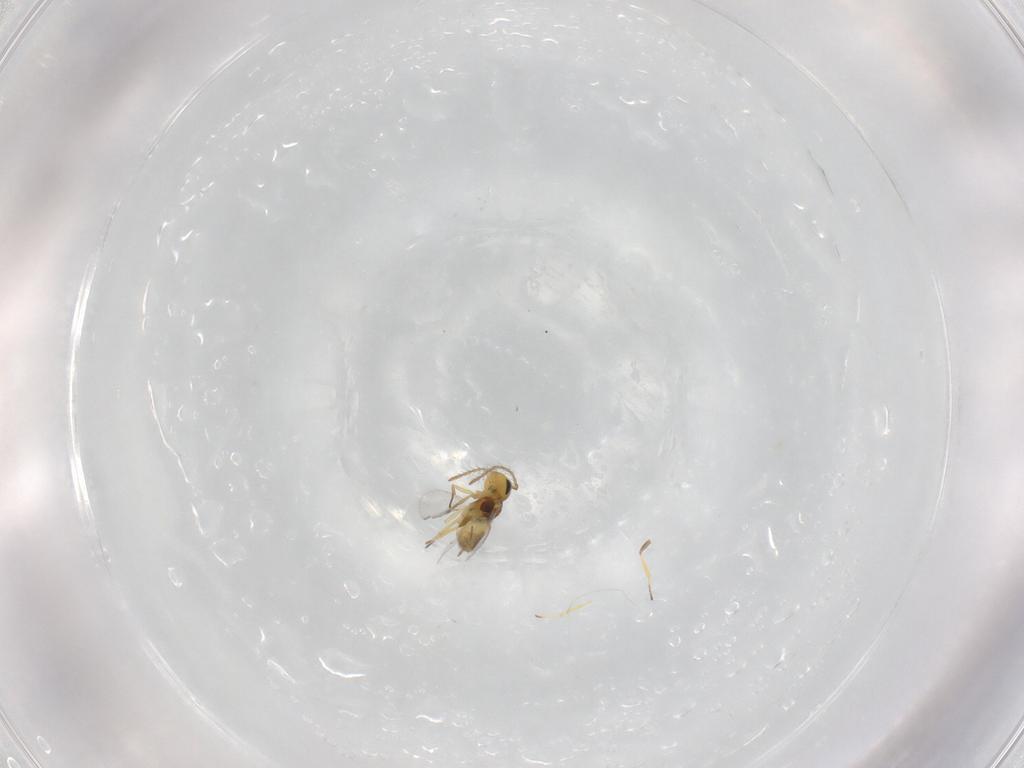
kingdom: Animalia
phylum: Arthropoda
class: Insecta
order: Hymenoptera
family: Encyrtidae
